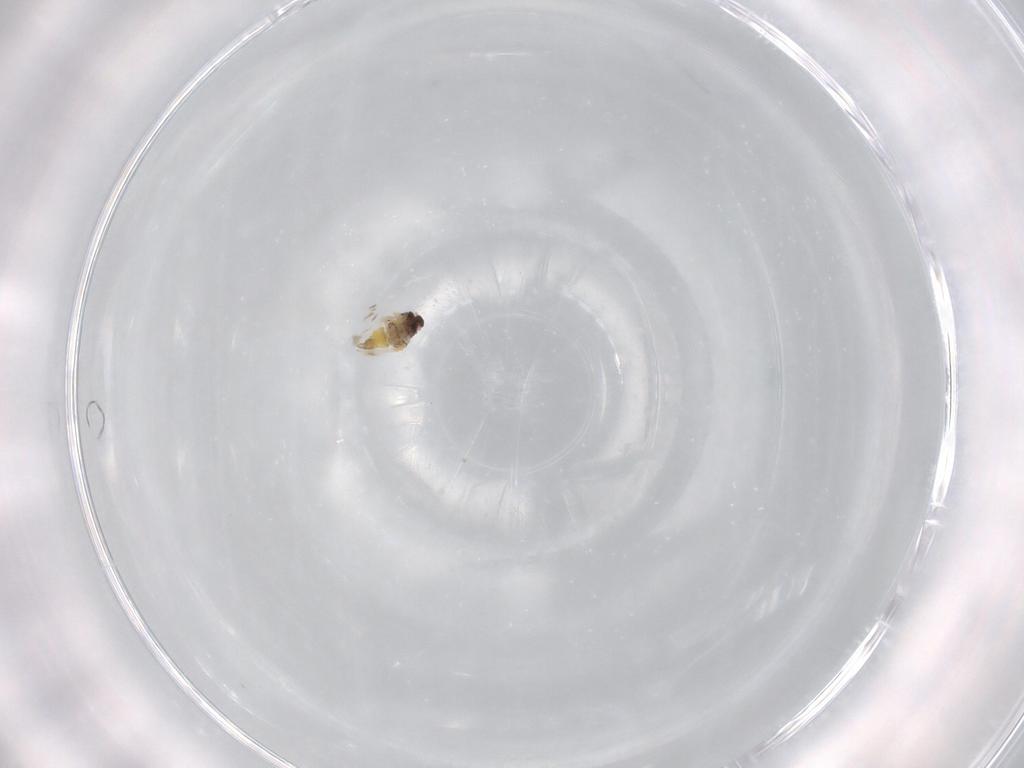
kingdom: Animalia
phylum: Arthropoda
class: Insecta
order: Hemiptera
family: Aleyrodidae
